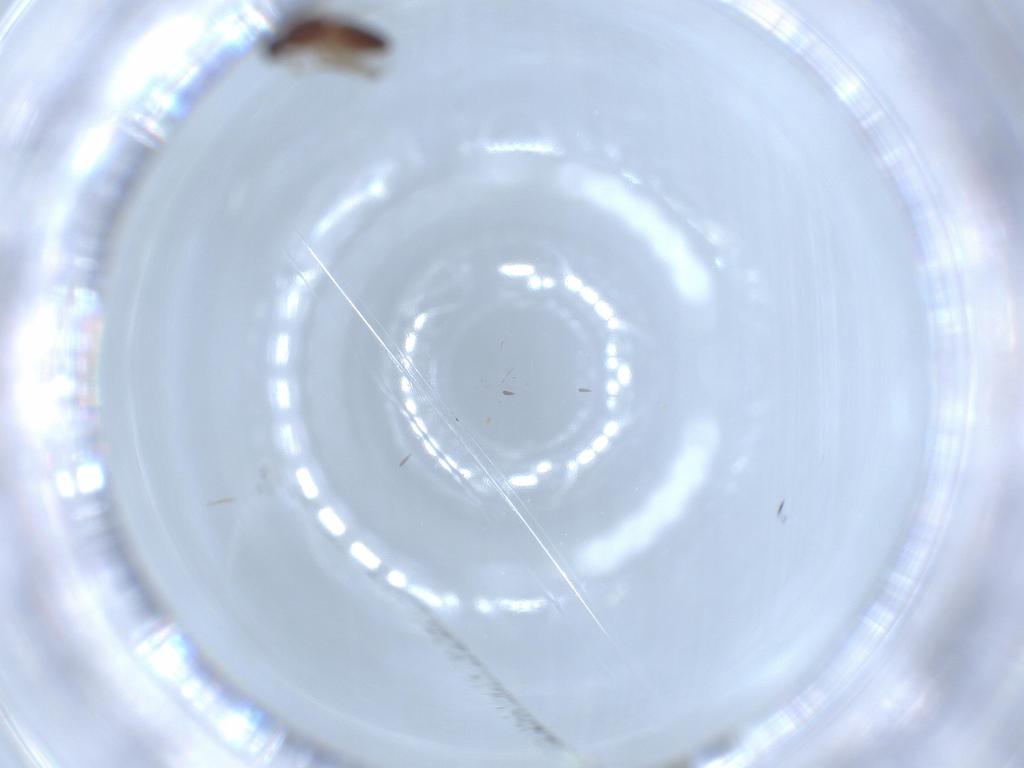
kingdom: Animalia
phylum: Arthropoda
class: Insecta
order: Diptera
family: Ceratopogonidae
